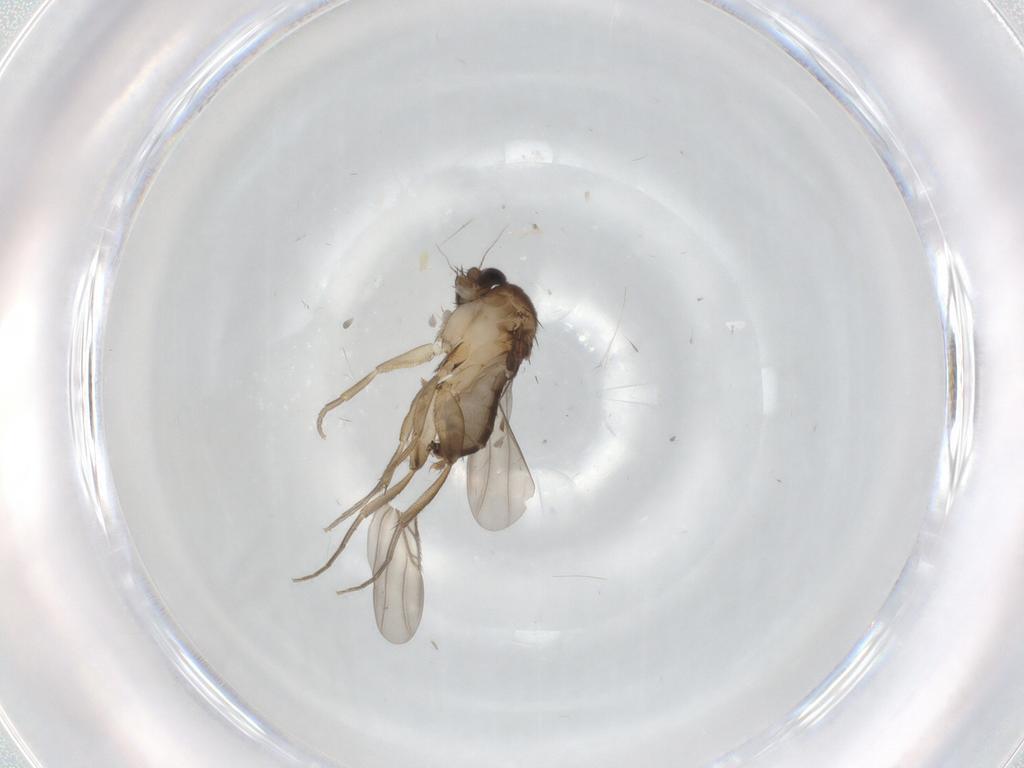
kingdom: Animalia
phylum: Arthropoda
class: Insecta
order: Diptera
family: Phoridae
